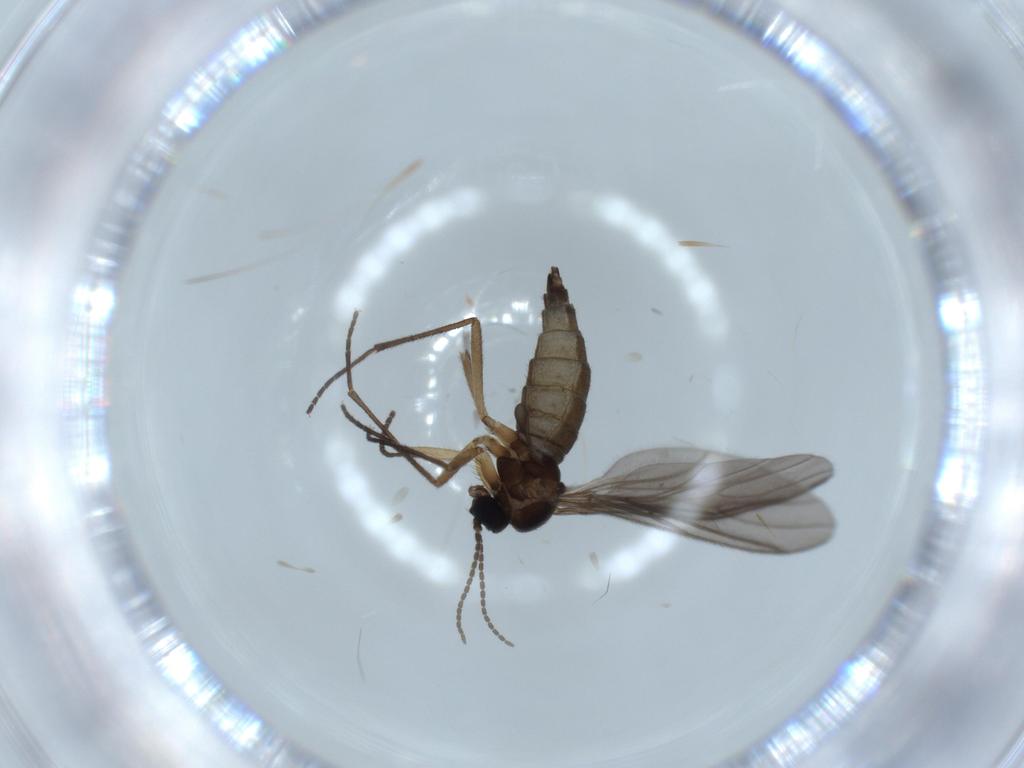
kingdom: Animalia
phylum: Arthropoda
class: Insecta
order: Diptera
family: Sciaridae
